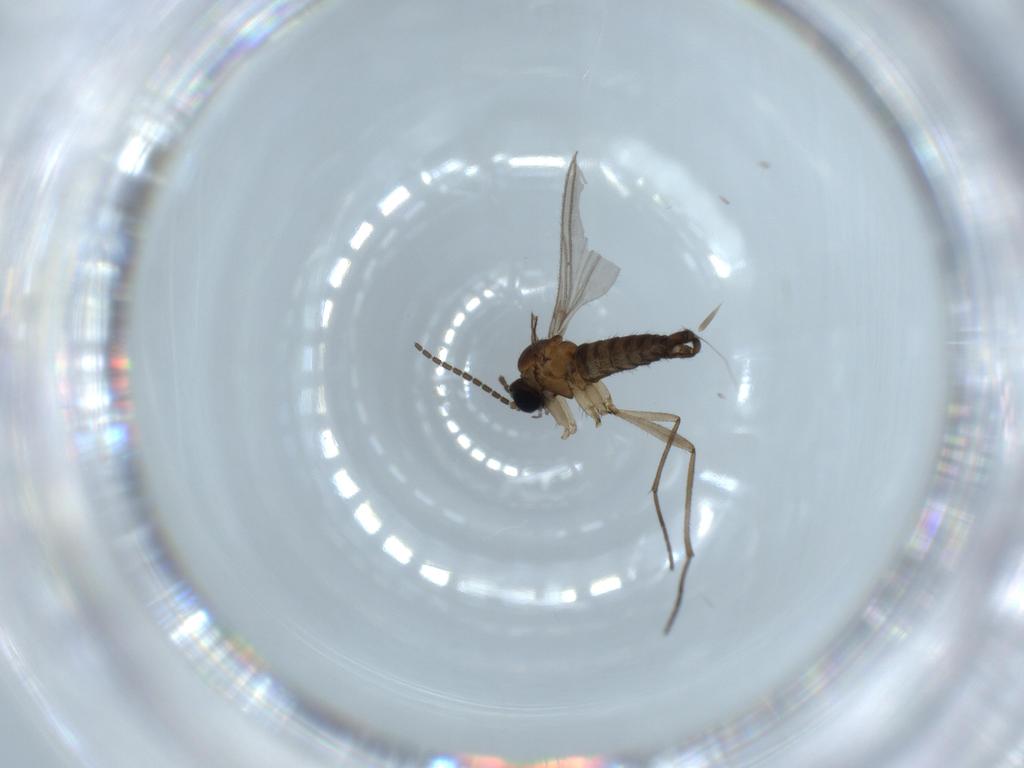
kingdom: Animalia
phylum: Arthropoda
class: Insecta
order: Diptera
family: Sciaridae
